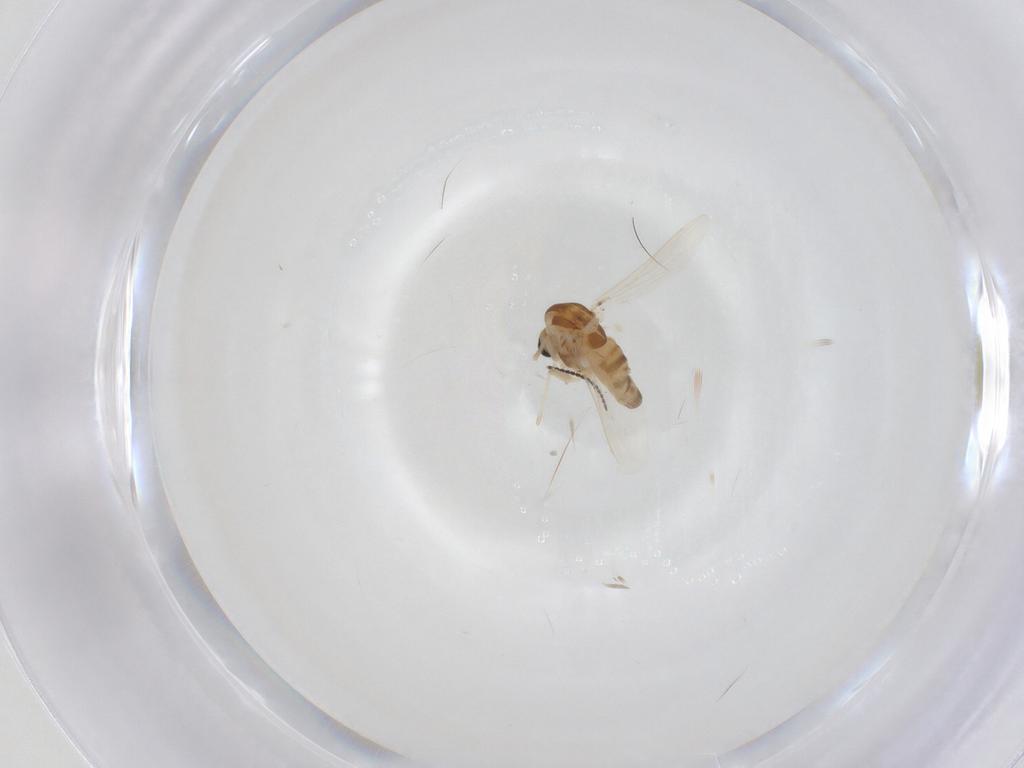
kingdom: Animalia
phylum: Arthropoda
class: Insecta
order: Diptera
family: Chironomidae
